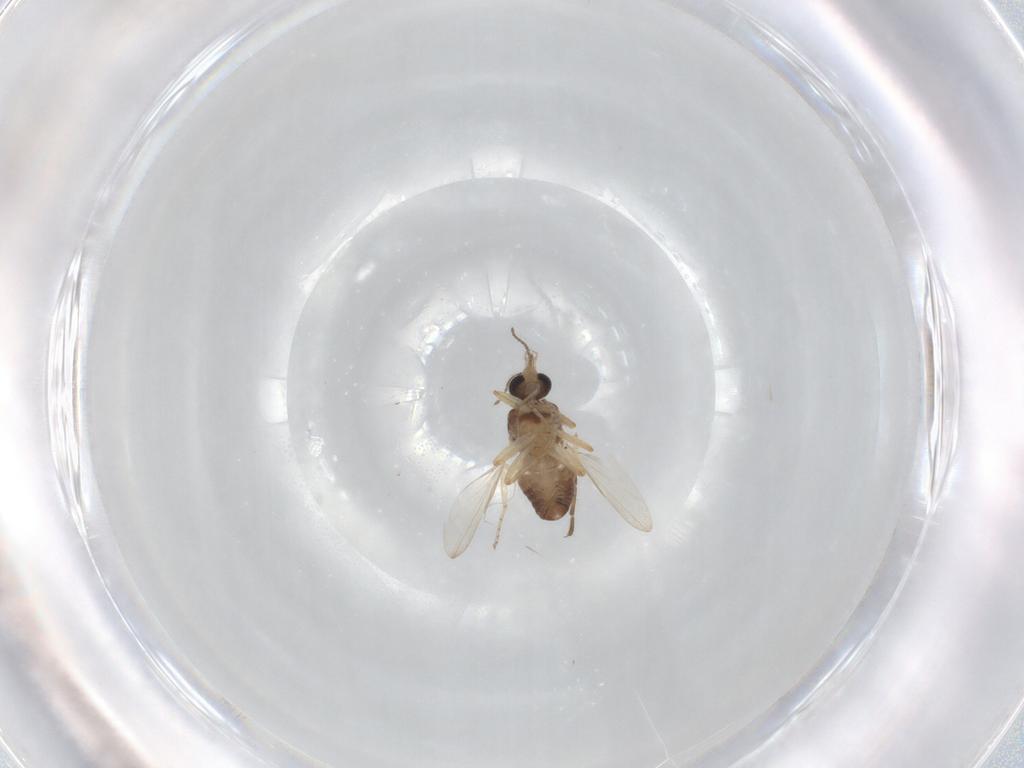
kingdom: Animalia
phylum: Arthropoda
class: Insecta
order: Diptera
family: Ceratopogonidae
